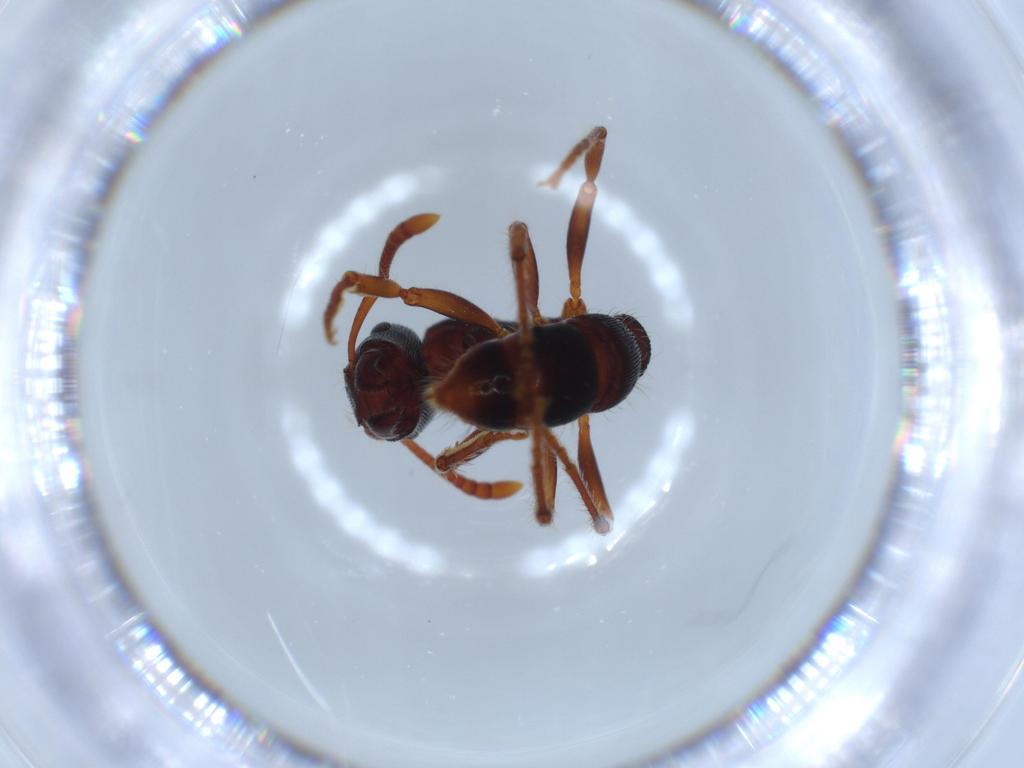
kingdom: Animalia
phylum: Arthropoda
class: Insecta
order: Hymenoptera
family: Formicidae
